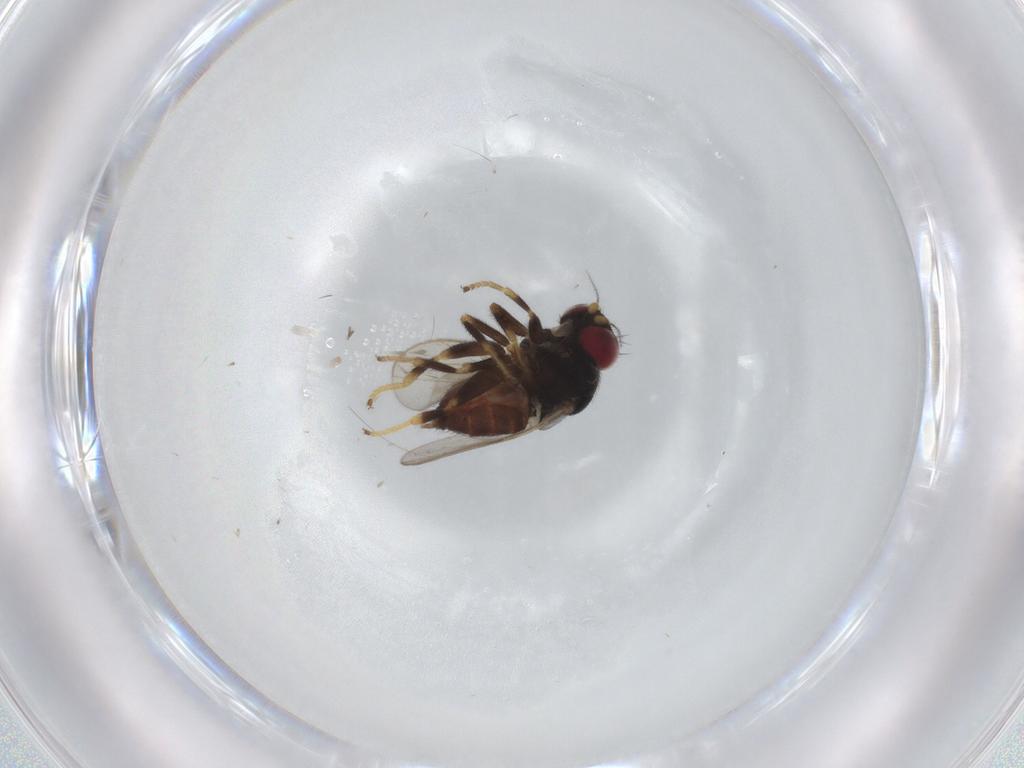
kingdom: Animalia
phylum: Arthropoda
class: Insecta
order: Diptera
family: Chloropidae
